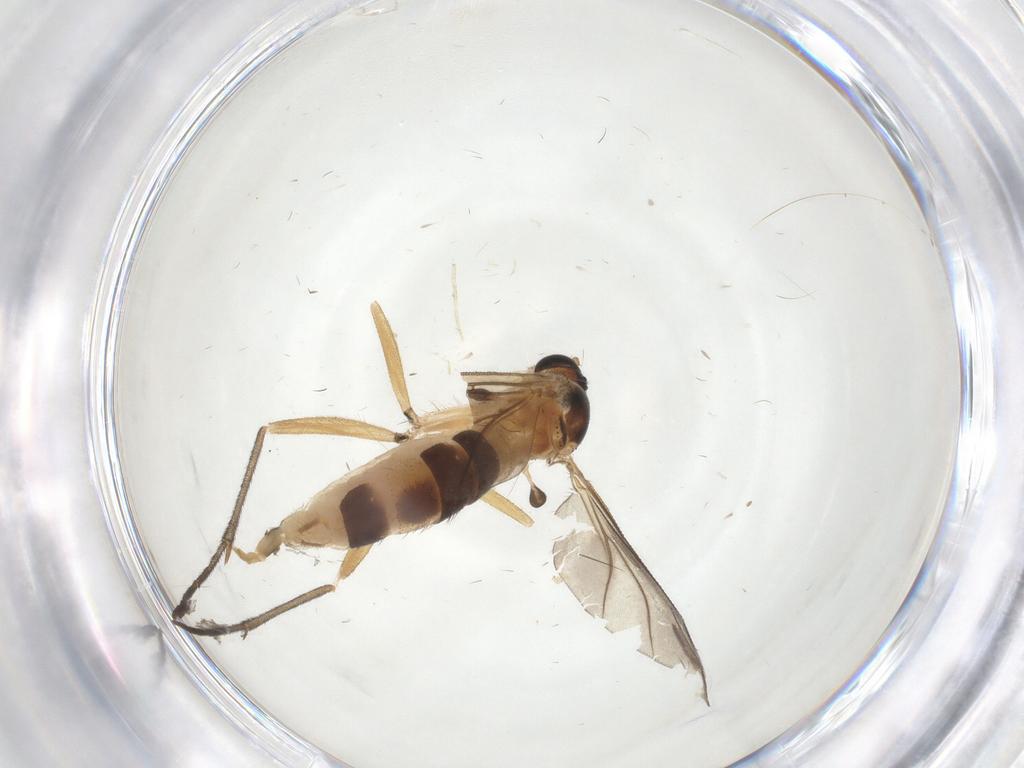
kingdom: Animalia
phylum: Arthropoda
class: Insecta
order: Diptera
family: Sciaridae
